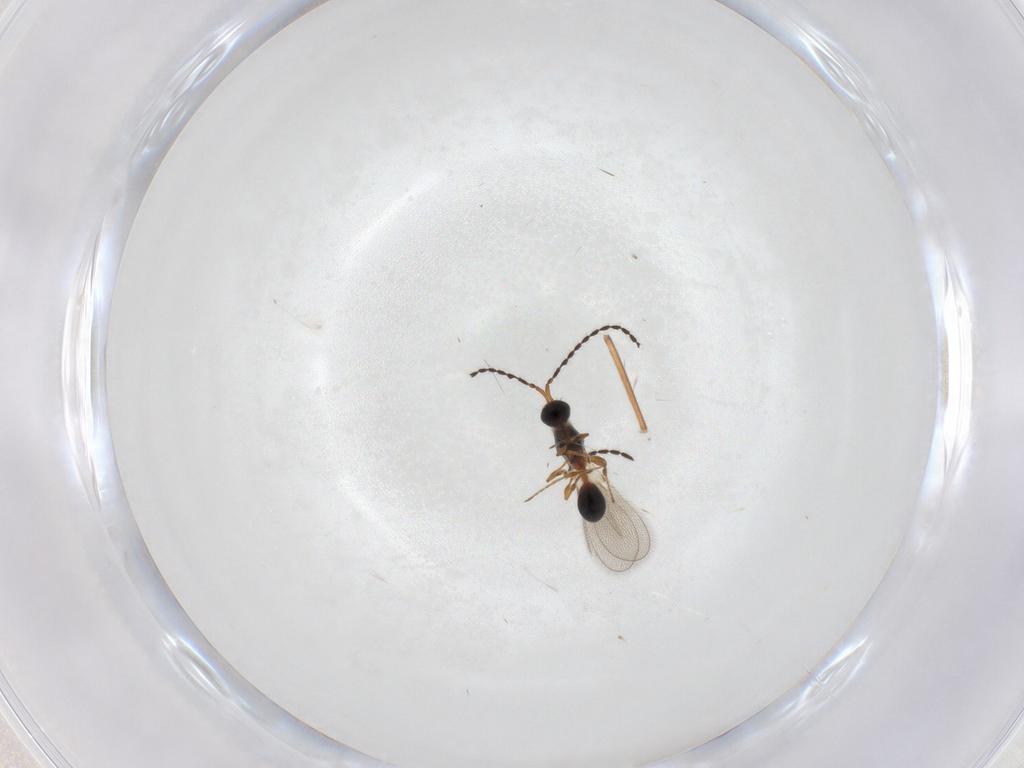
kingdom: Animalia
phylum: Arthropoda
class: Insecta
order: Hymenoptera
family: Diapriidae
